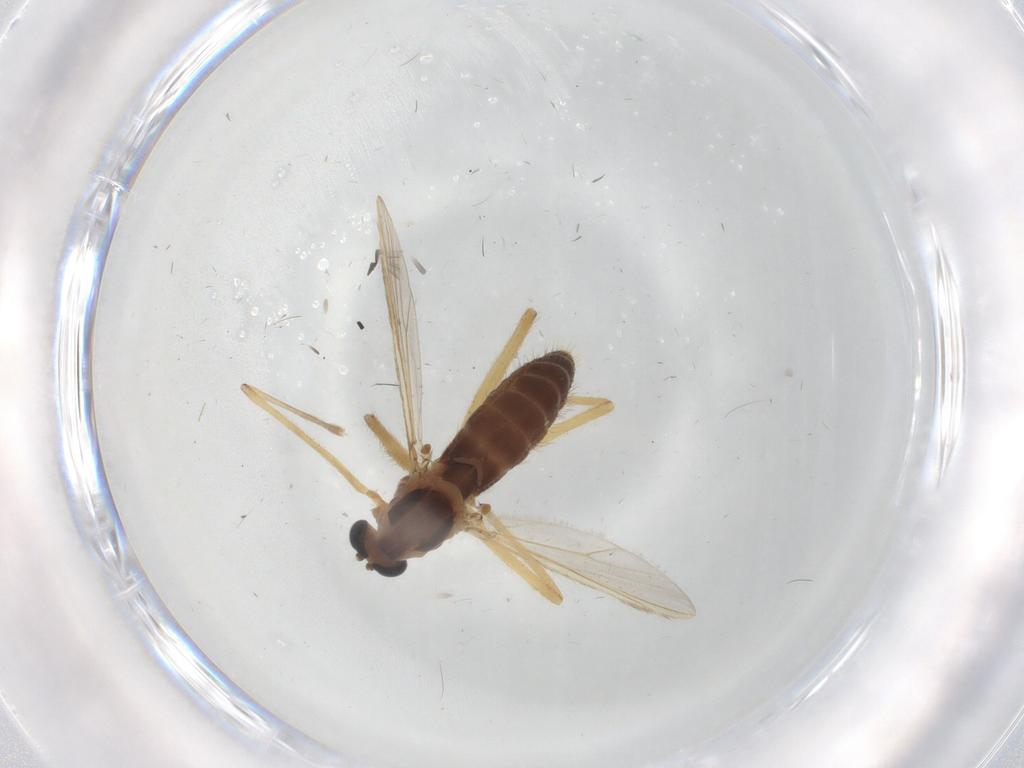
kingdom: Animalia
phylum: Arthropoda
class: Insecta
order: Diptera
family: Chironomidae
